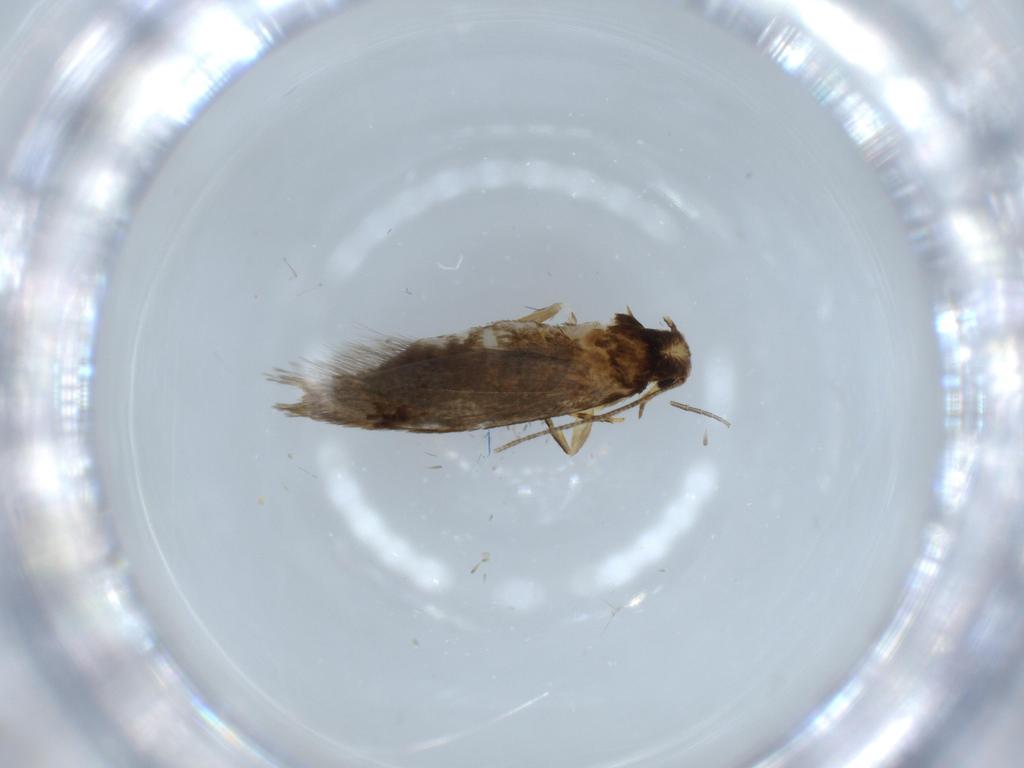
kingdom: Animalia
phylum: Arthropoda
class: Insecta
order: Lepidoptera
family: Tineidae
